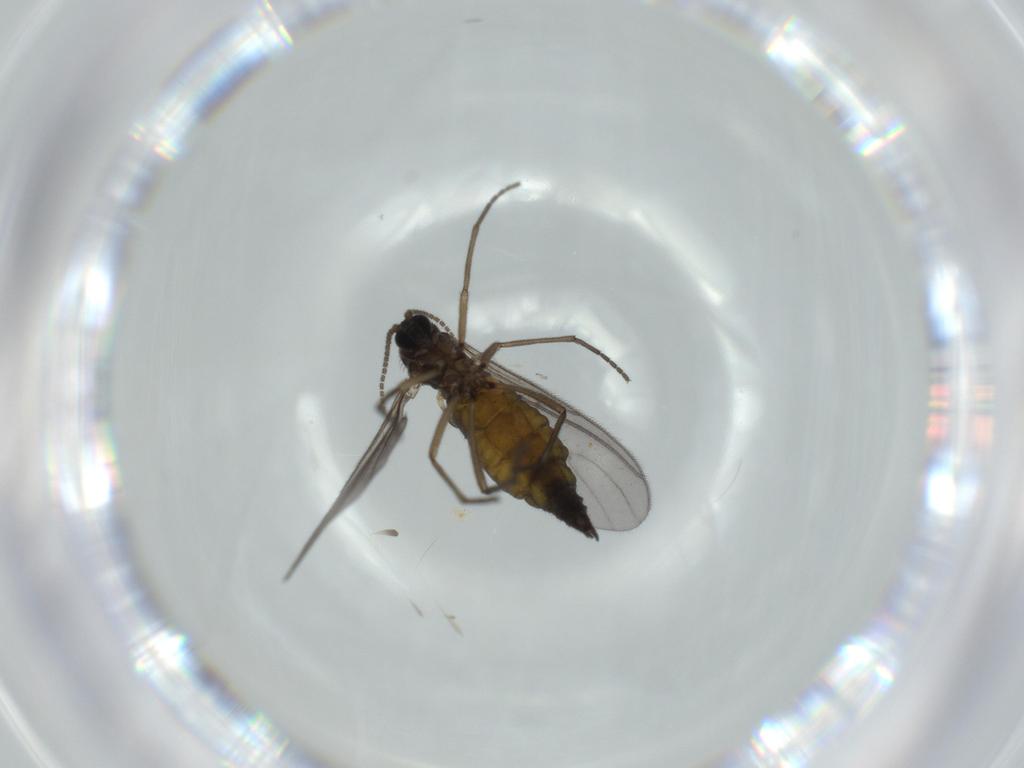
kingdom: Animalia
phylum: Arthropoda
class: Insecta
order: Diptera
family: Sciaridae
